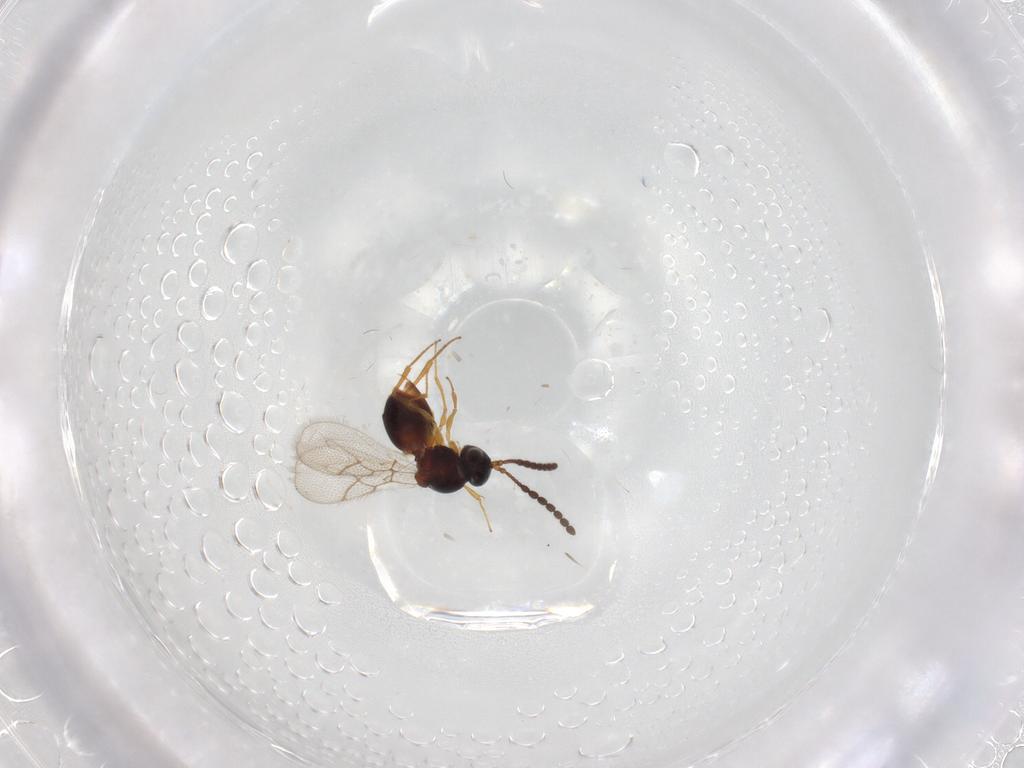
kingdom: Animalia
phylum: Arthropoda
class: Insecta
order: Hymenoptera
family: Figitidae
